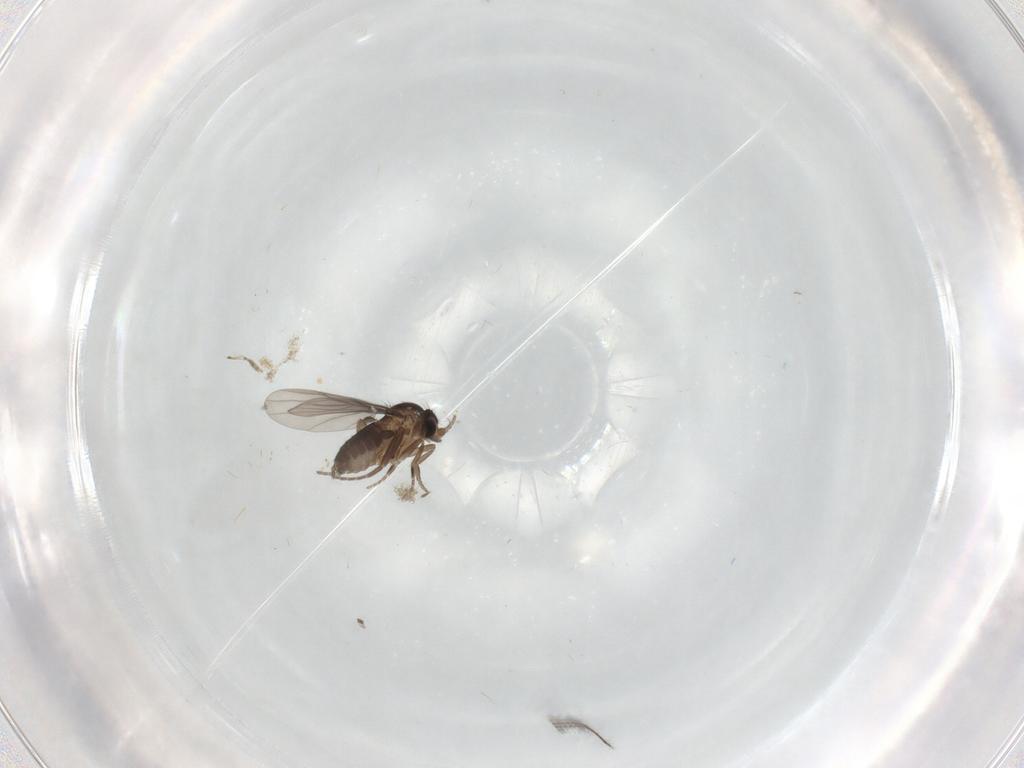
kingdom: Animalia
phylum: Arthropoda
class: Insecta
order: Diptera
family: Phoridae
